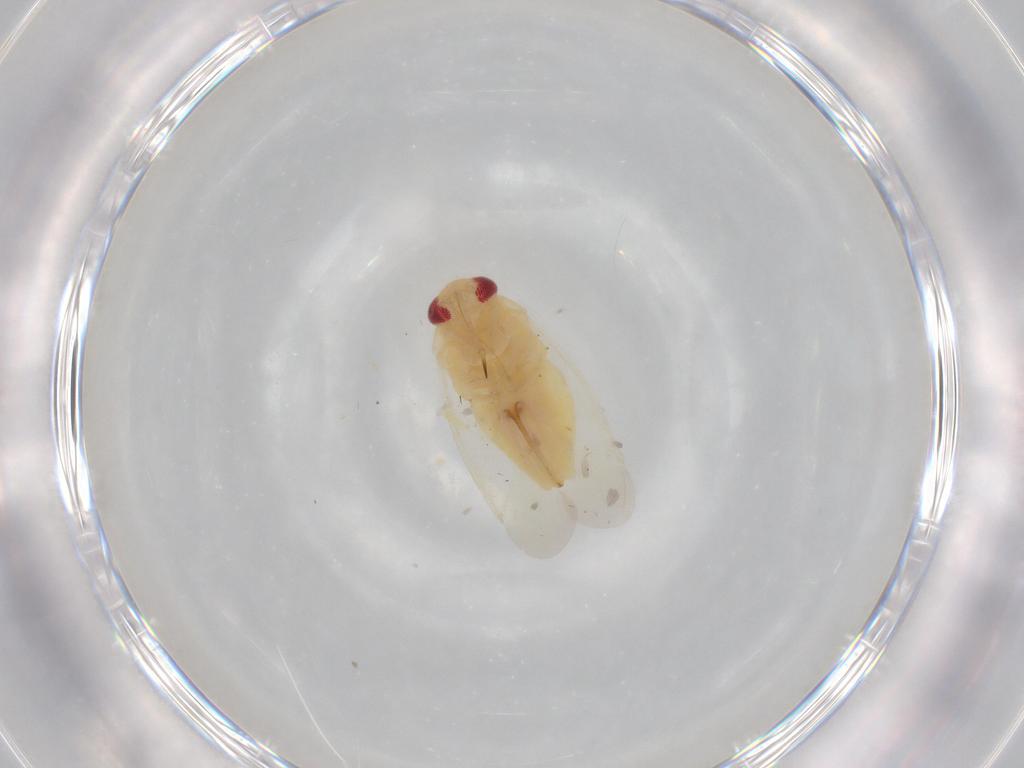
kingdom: Animalia
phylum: Arthropoda
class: Insecta
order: Hemiptera
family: Miridae
